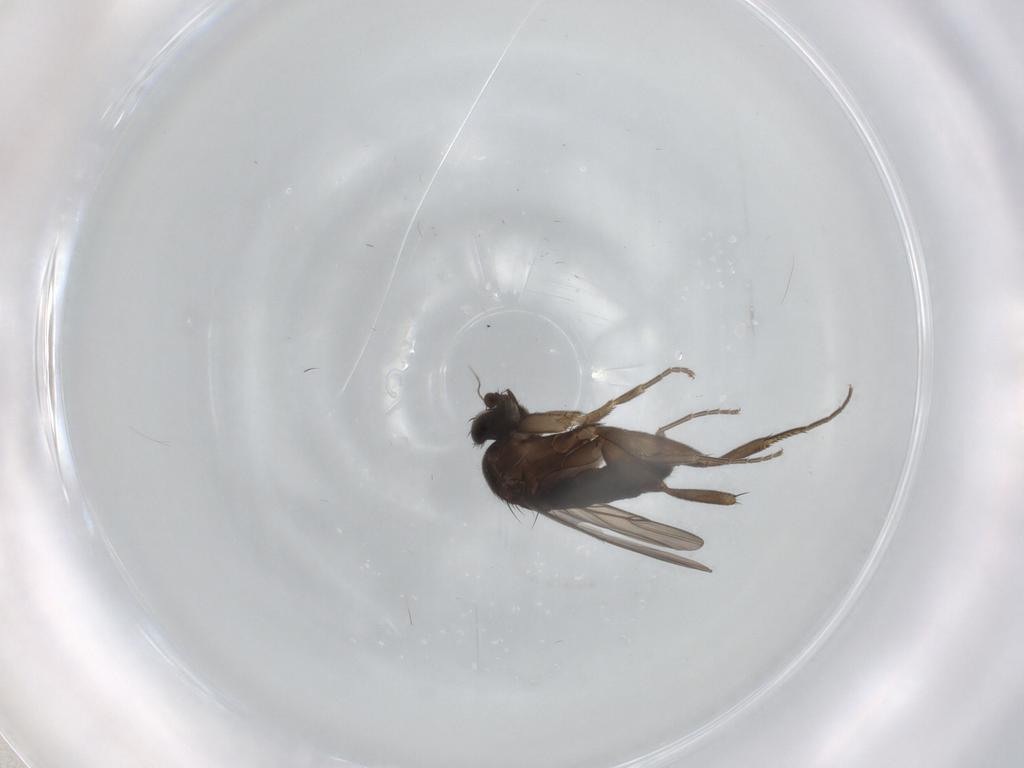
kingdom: Animalia
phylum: Arthropoda
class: Insecta
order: Diptera
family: Phoridae
